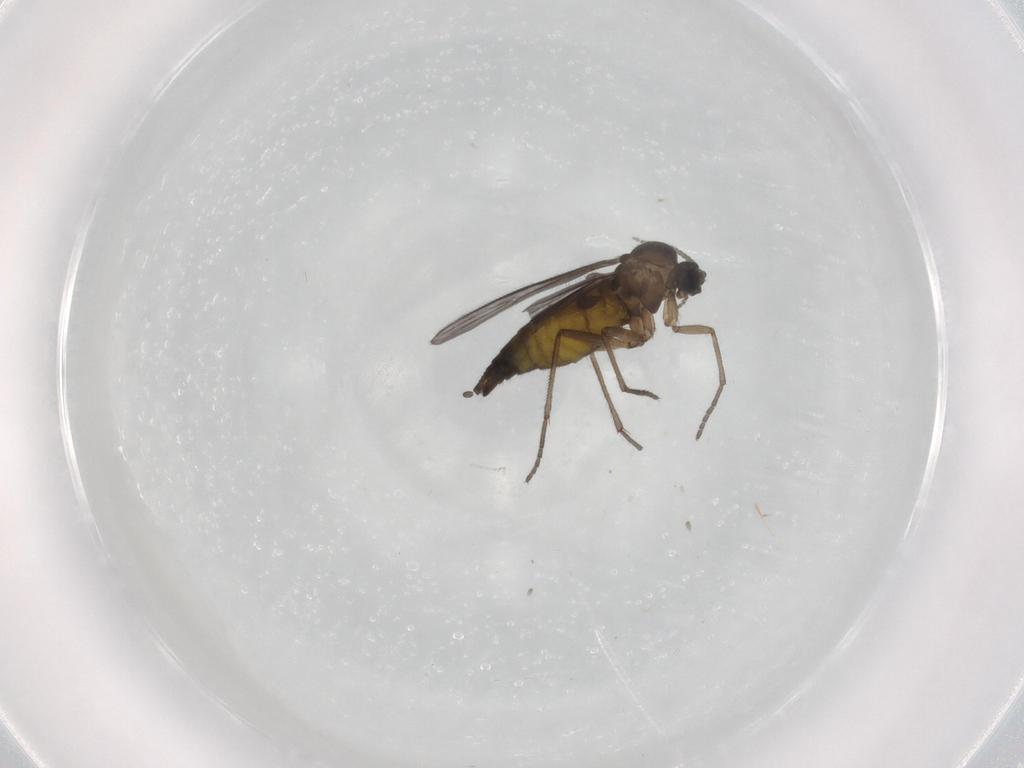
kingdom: Animalia
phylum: Arthropoda
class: Insecta
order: Diptera
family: Sciaridae
